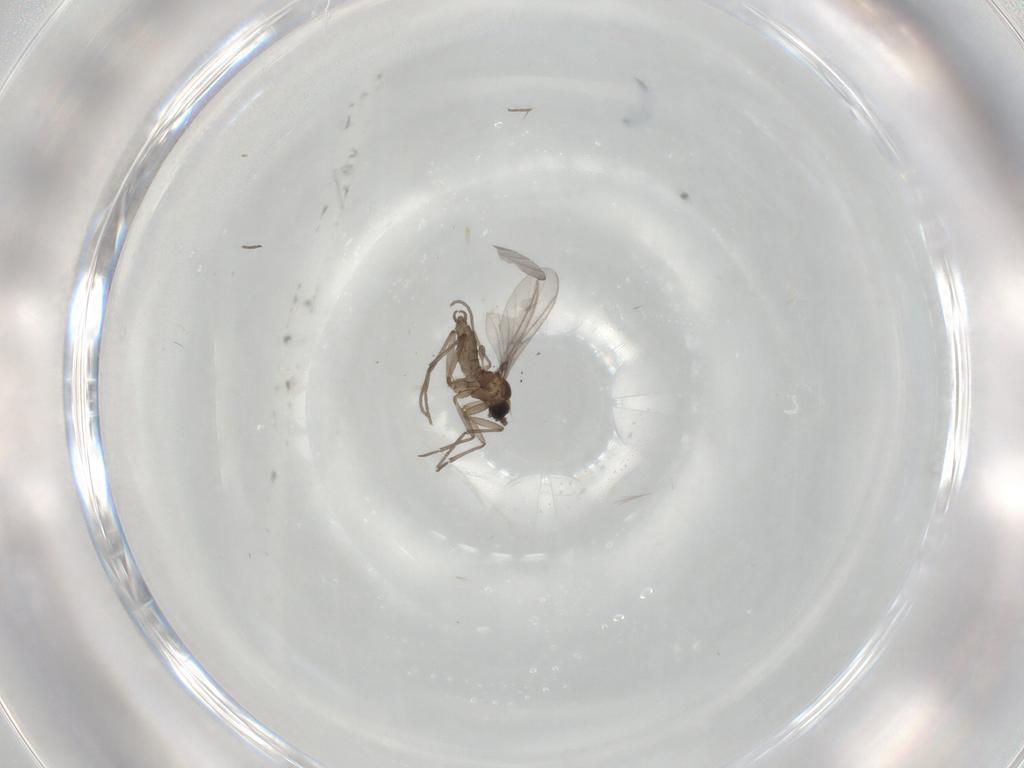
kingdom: Animalia
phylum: Arthropoda
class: Insecta
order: Diptera
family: Sciaridae
